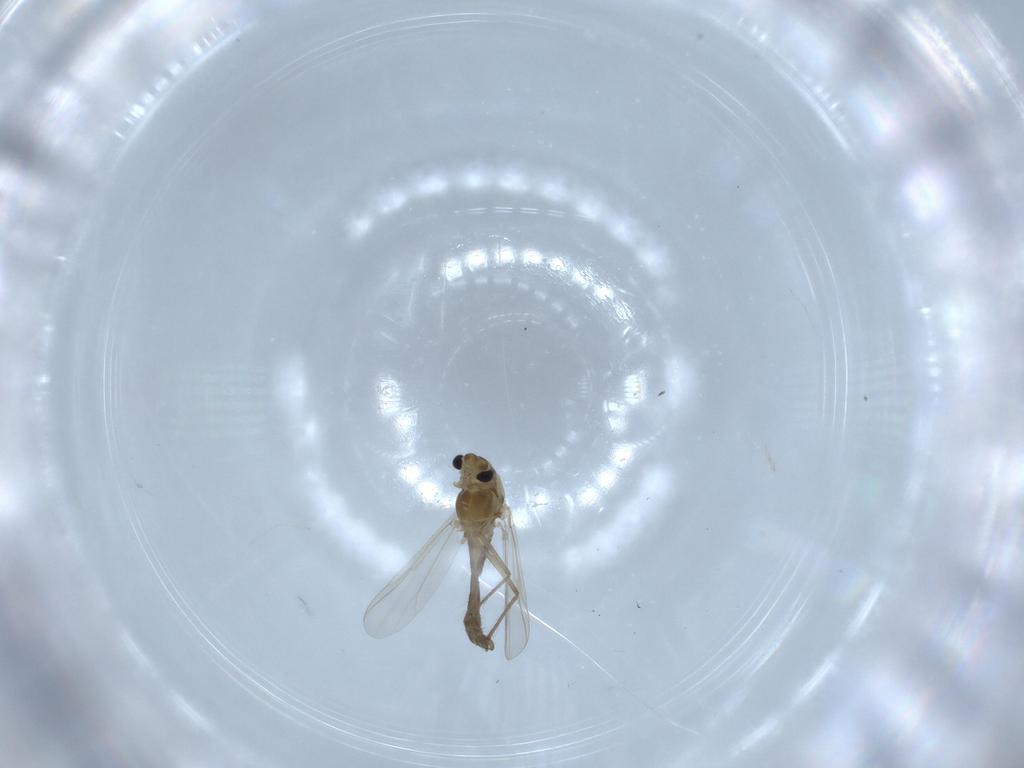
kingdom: Animalia
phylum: Arthropoda
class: Insecta
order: Diptera
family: Chironomidae
